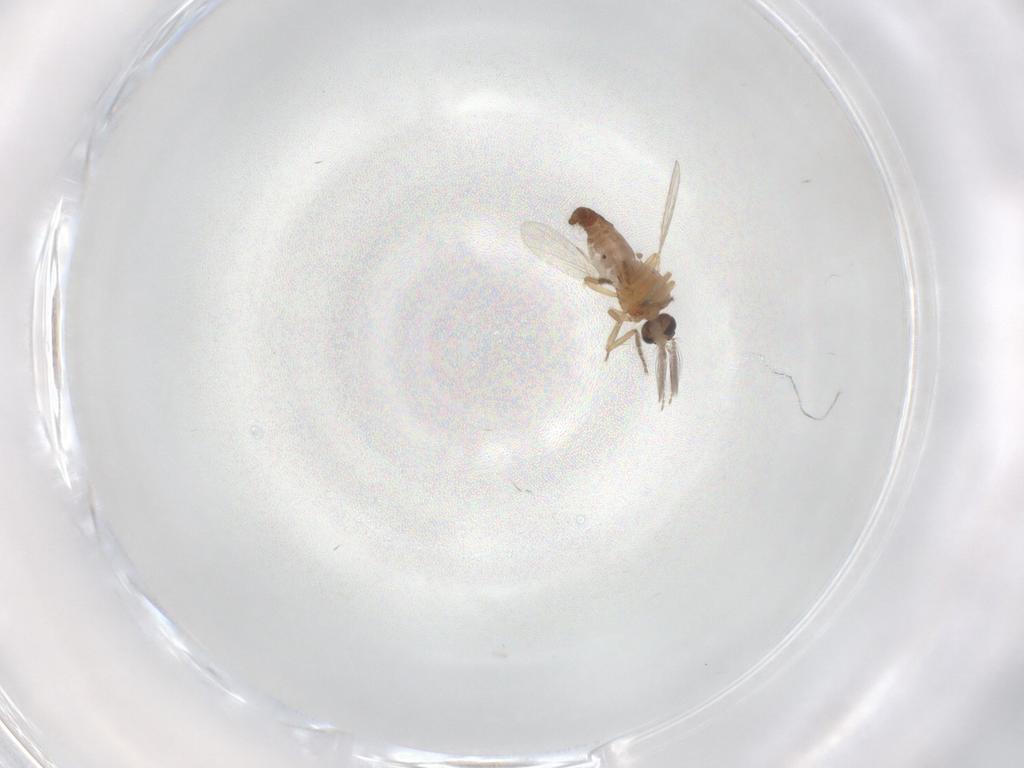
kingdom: Animalia
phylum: Arthropoda
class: Insecta
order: Diptera
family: Ceratopogonidae
